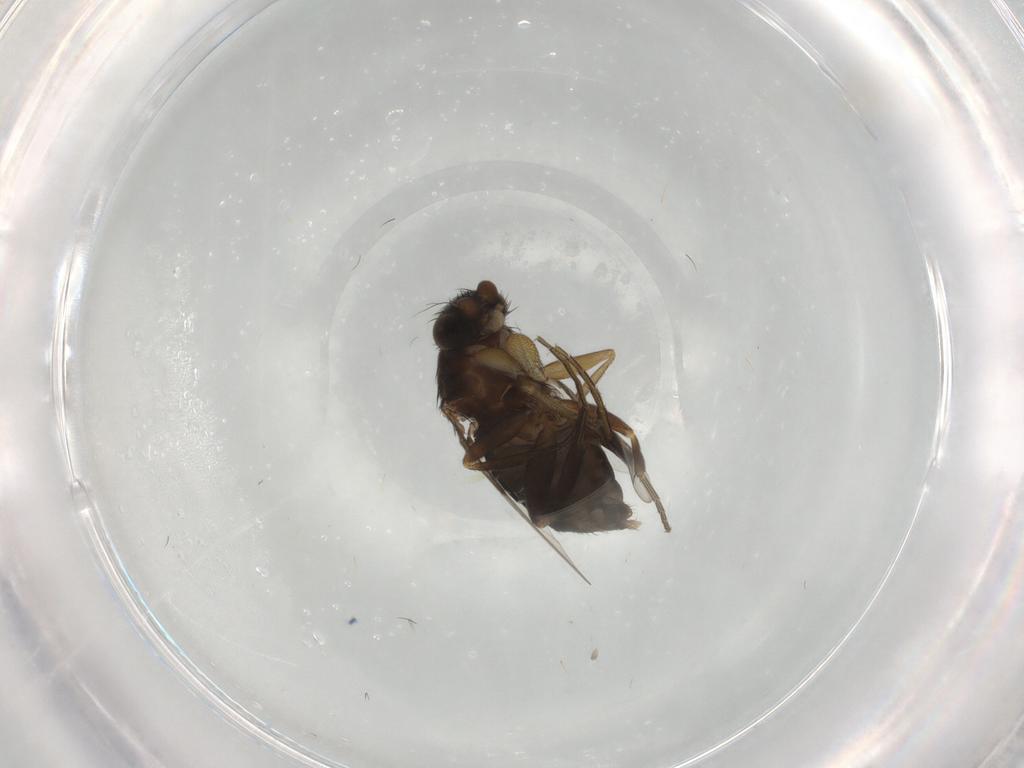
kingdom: Animalia
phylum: Arthropoda
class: Insecta
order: Diptera
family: Phoridae
